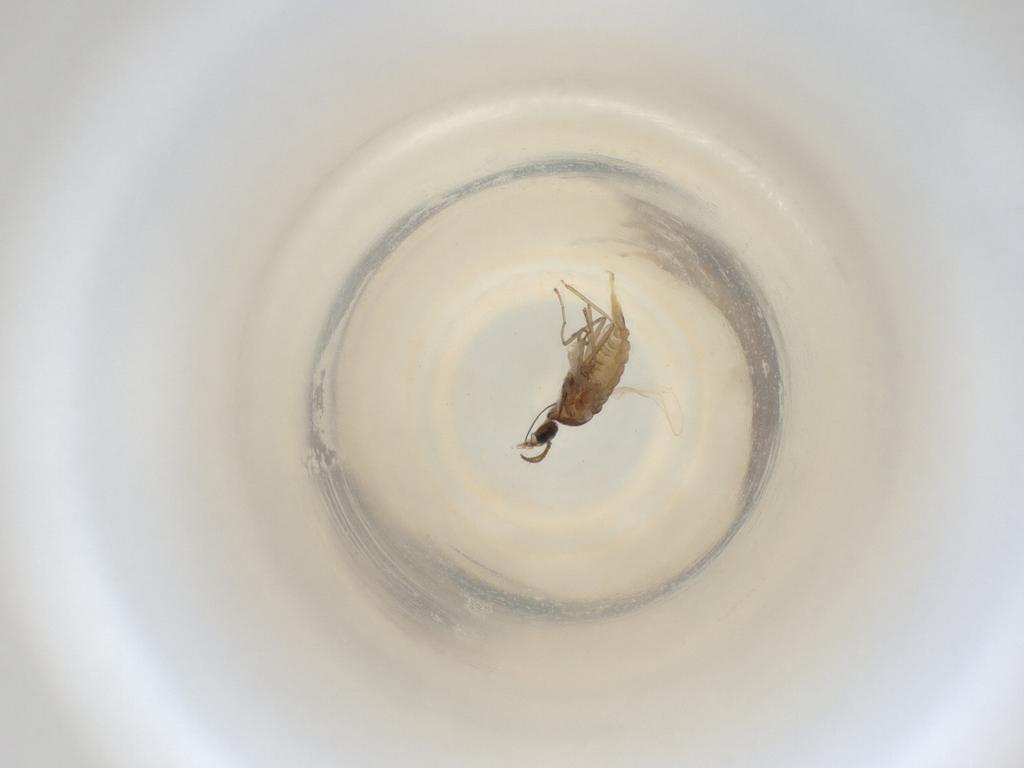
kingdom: Animalia
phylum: Arthropoda
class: Insecta
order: Diptera
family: Cecidomyiidae
